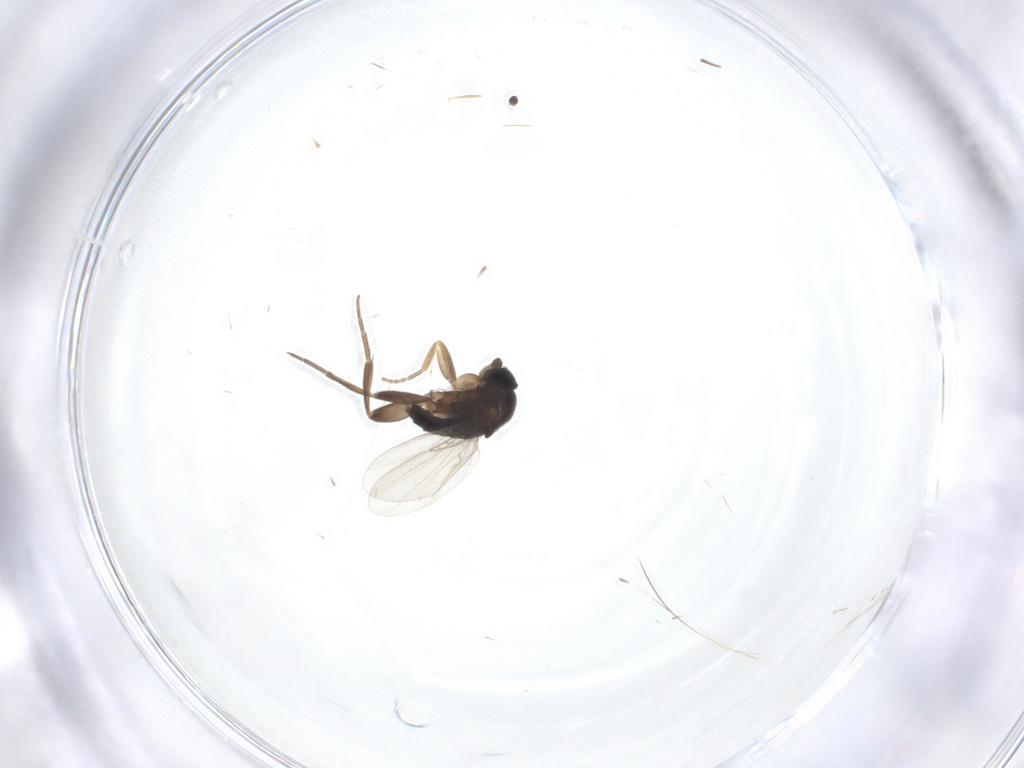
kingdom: Animalia
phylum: Arthropoda
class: Insecta
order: Diptera
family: Phoridae
